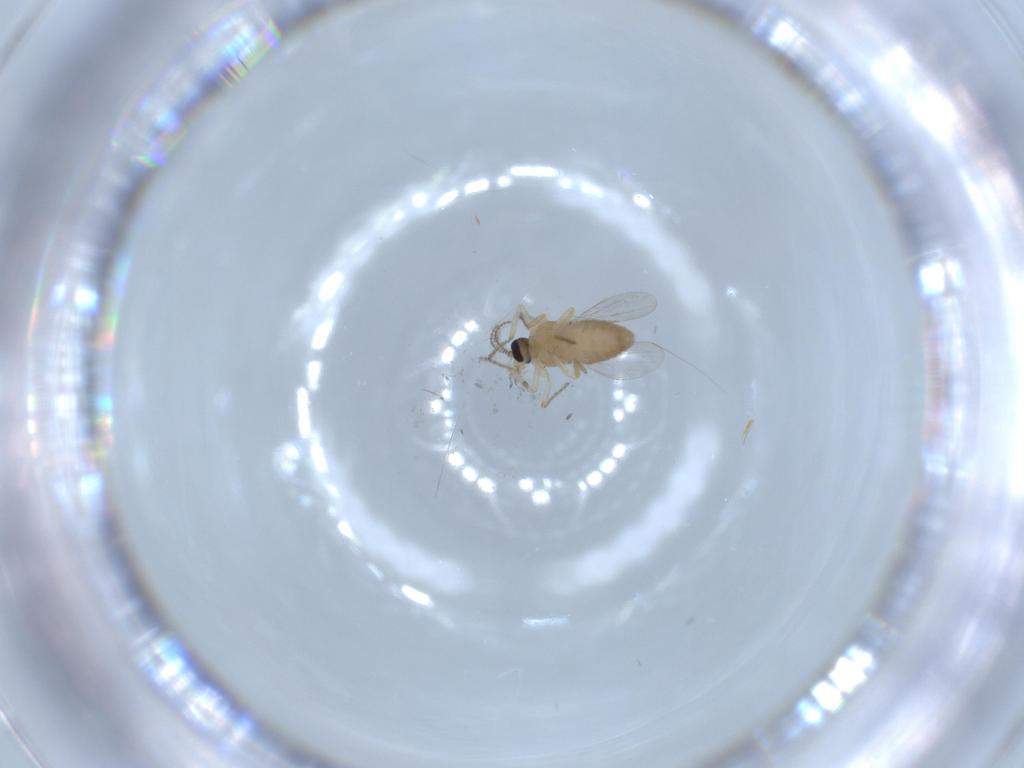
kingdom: Animalia
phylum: Arthropoda
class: Insecta
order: Diptera
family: Ceratopogonidae
